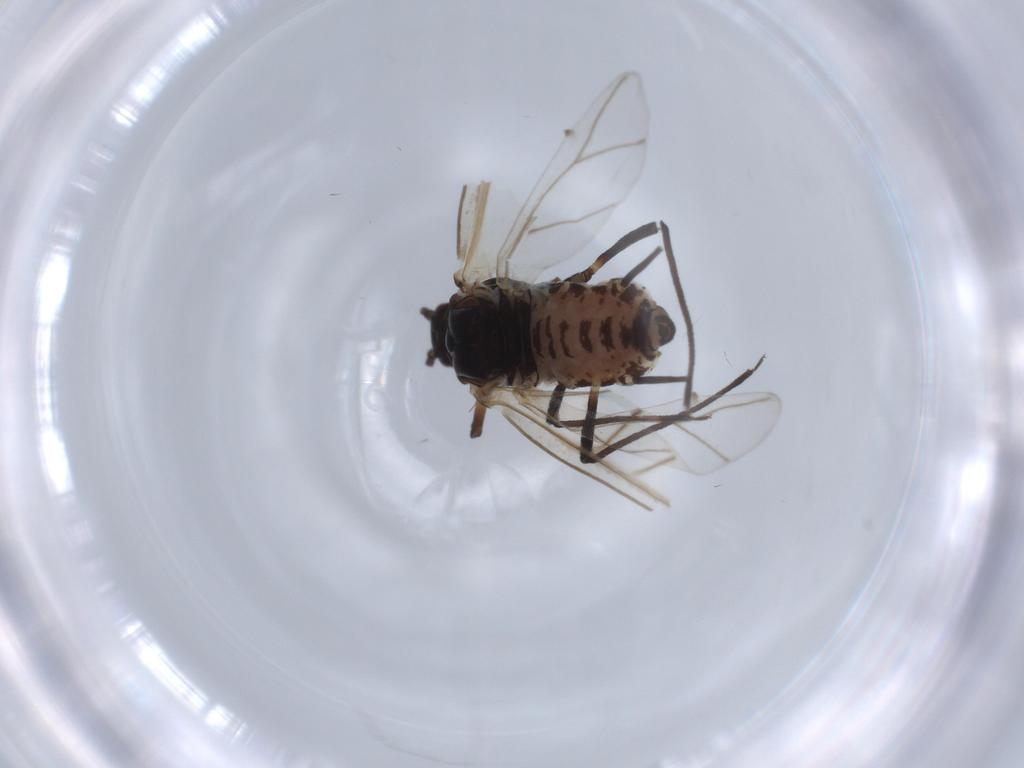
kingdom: Animalia
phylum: Arthropoda
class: Insecta
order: Hemiptera
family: Aphididae
